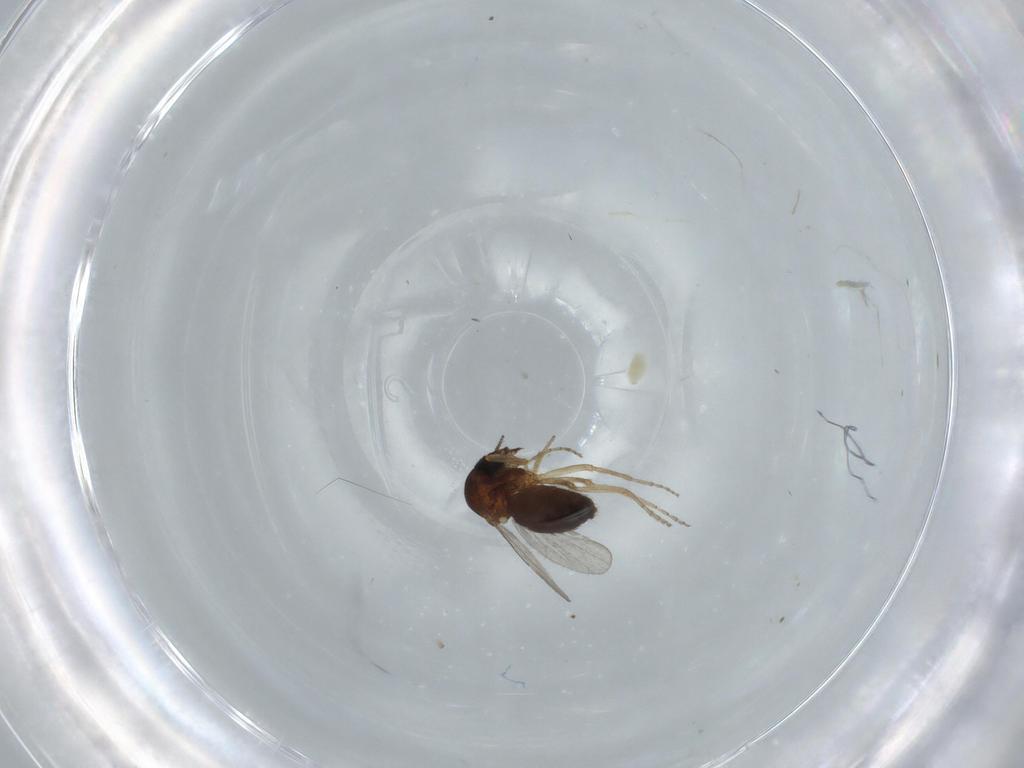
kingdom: Animalia
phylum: Arthropoda
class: Insecta
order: Diptera
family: Ceratopogonidae
